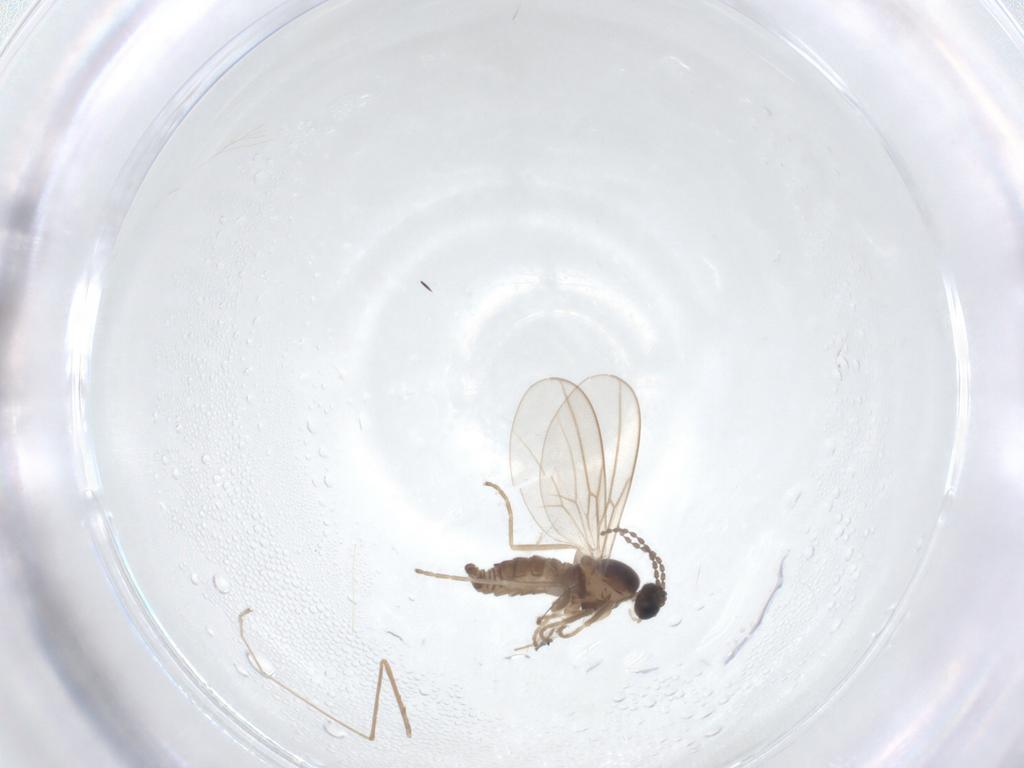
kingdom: Animalia
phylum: Arthropoda
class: Insecta
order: Diptera
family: Cecidomyiidae
